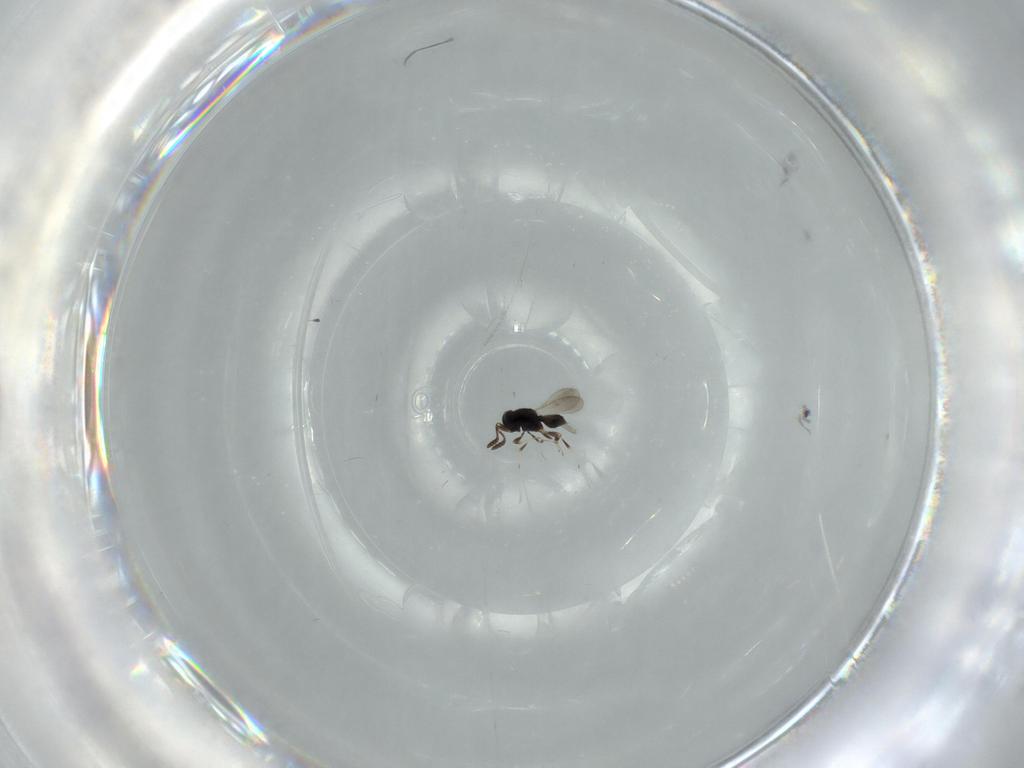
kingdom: Animalia
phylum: Arthropoda
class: Insecta
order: Hymenoptera
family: Scelionidae
